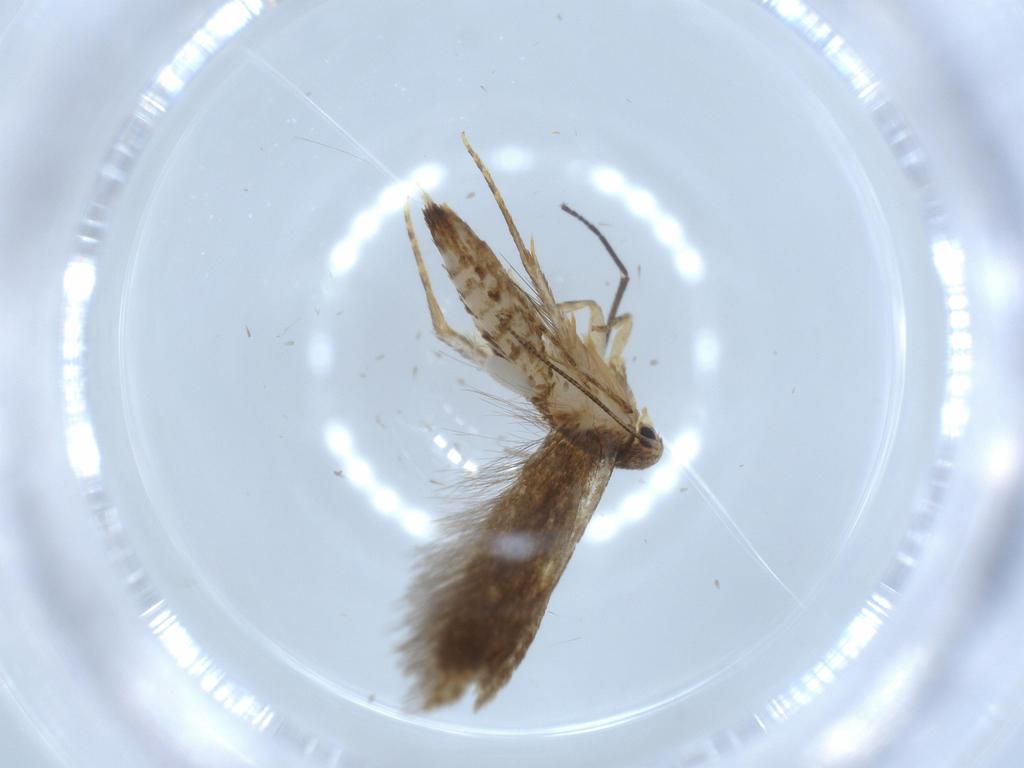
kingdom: Animalia
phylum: Arthropoda
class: Insecta
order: Lepidoptera
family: Tineidae
